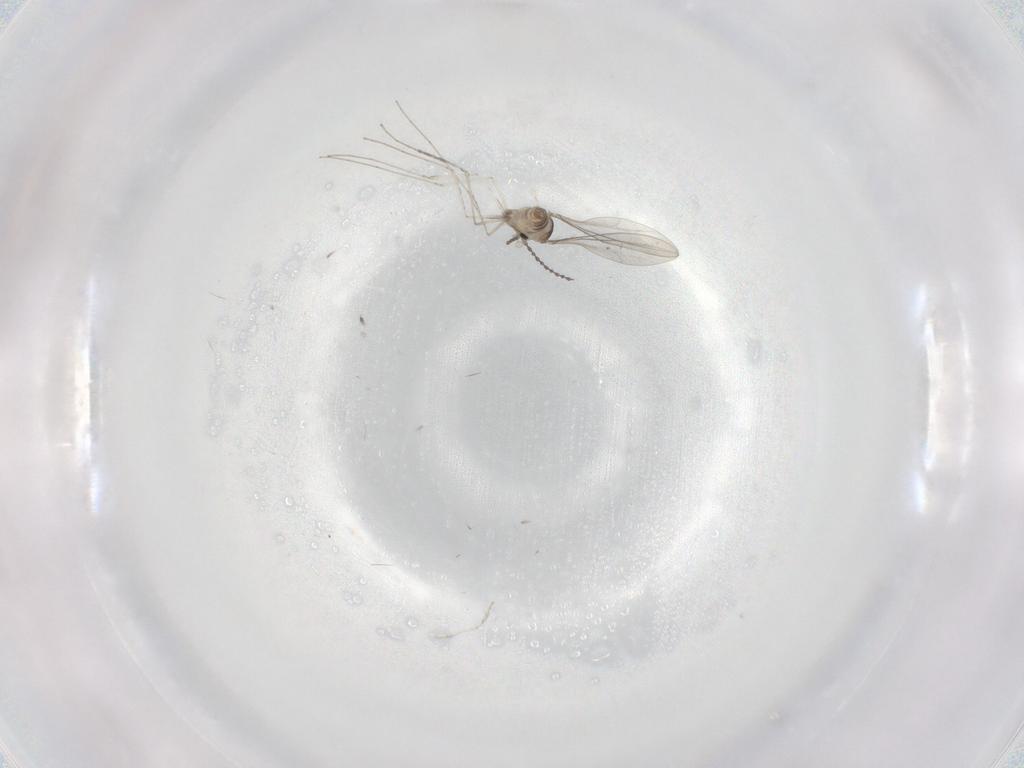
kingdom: Animalia
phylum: Arthropoda
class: Insecta
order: Diptera
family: Cecidomyiidae
